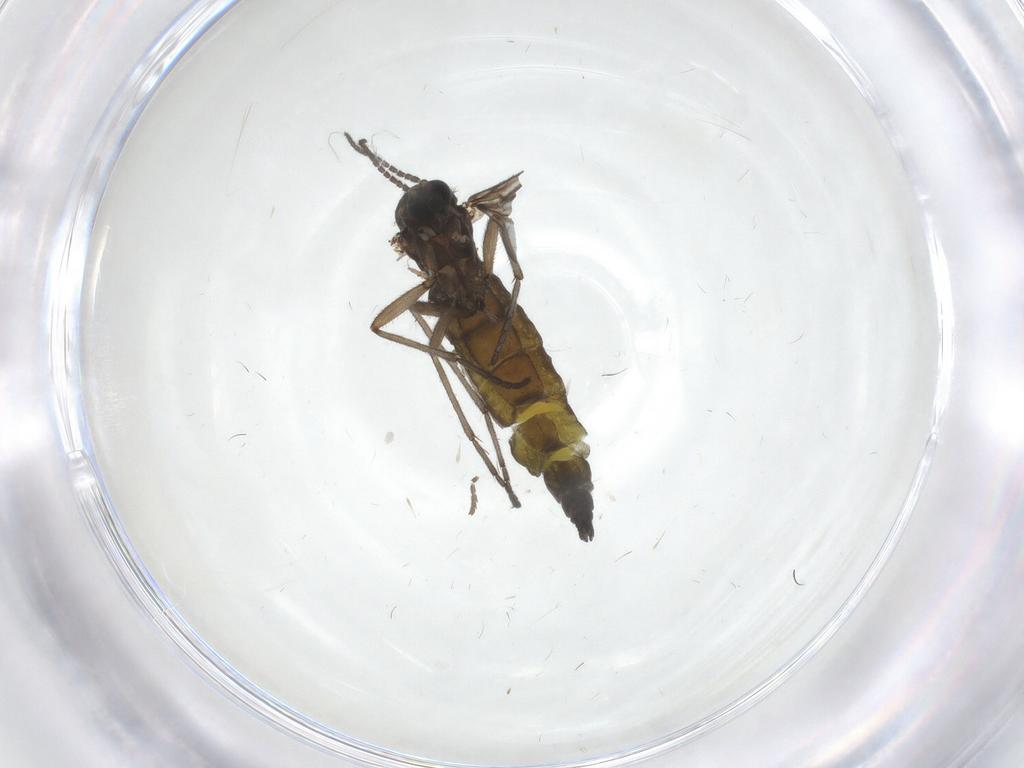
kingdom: Animalia
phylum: Arthropoda
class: Insecta
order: Diptera
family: Sciaridae
